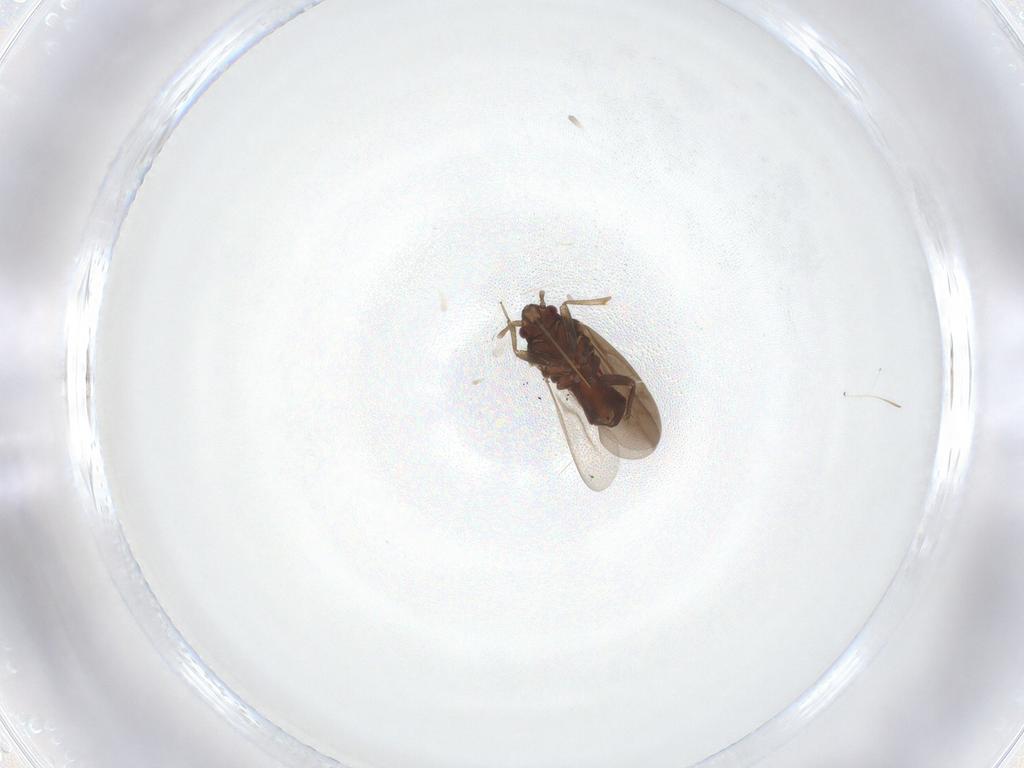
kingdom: Animalia
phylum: Arthropoda
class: Insecta
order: Hemiptera
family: Ceratocombidae
